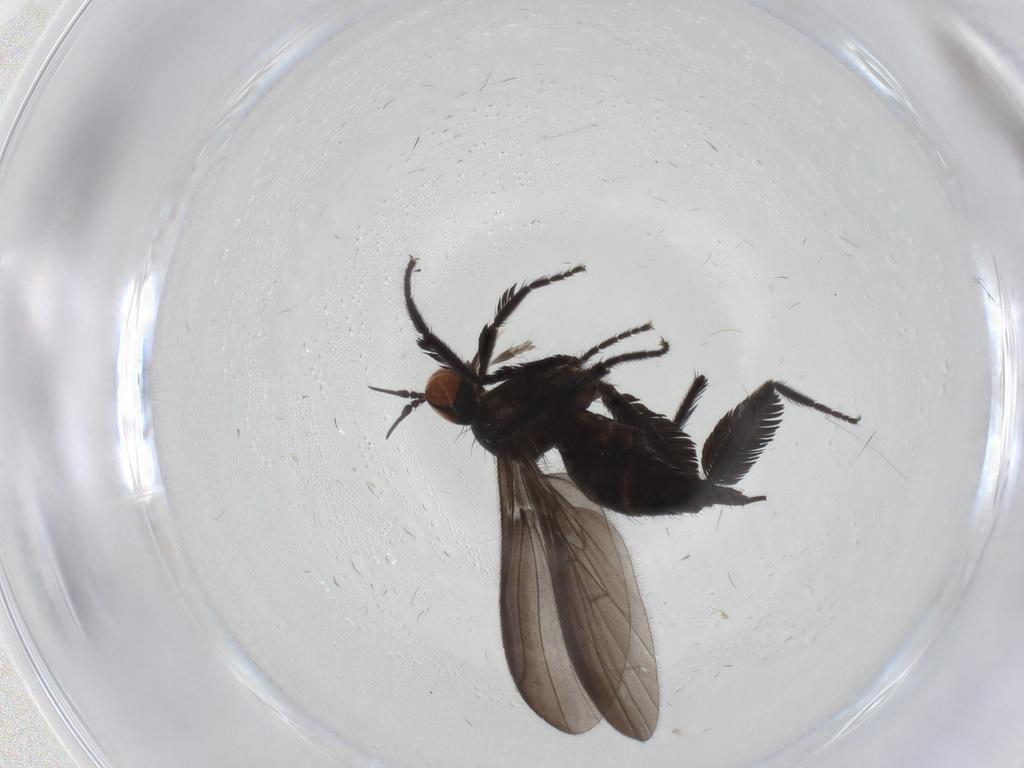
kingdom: Animalia
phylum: Arthropoda
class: Insecta
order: Diptera
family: Empididae
